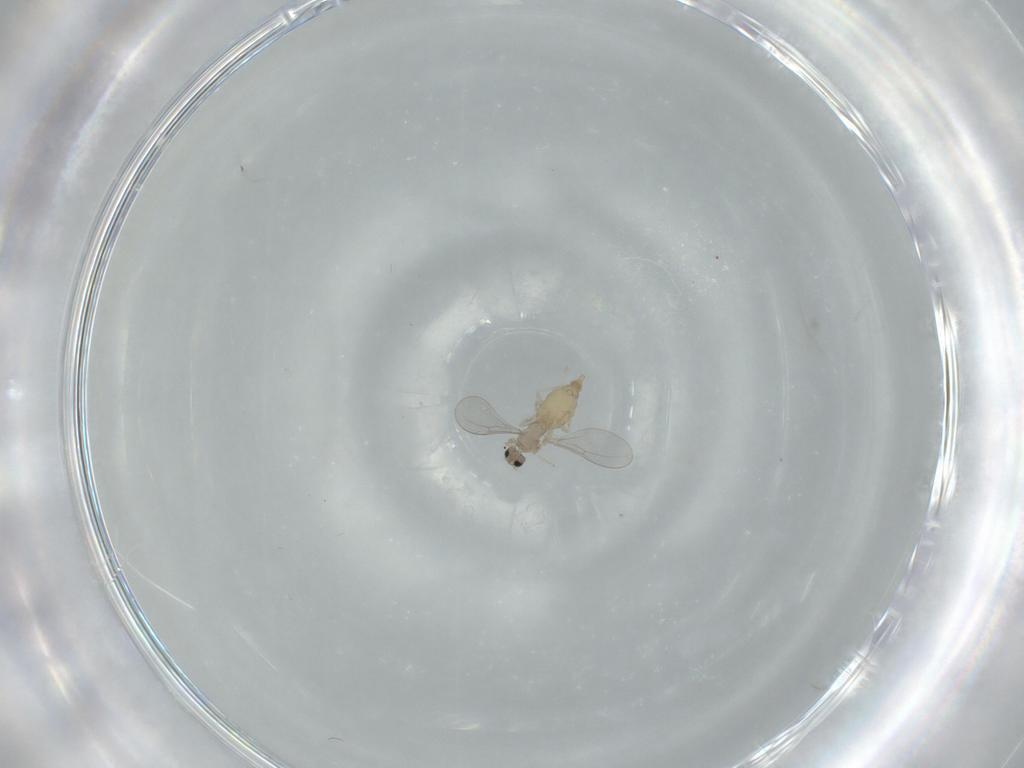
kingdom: Animalia
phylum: Arthropoda
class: Insecta
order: Diptera
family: Cecidomyiidae
